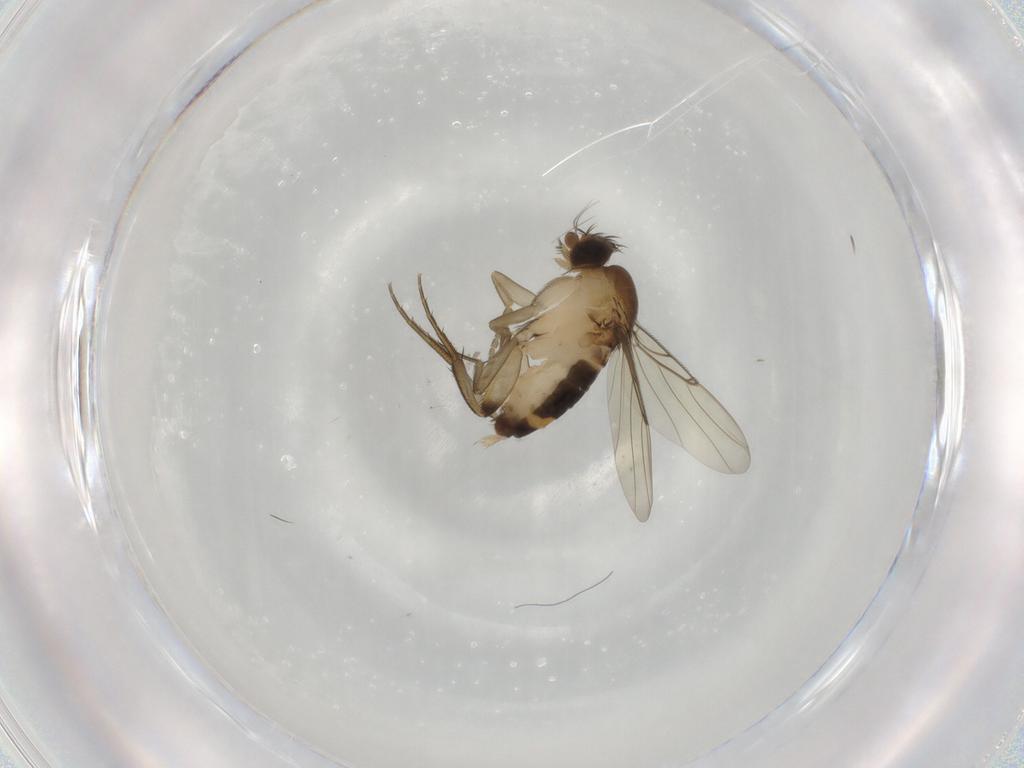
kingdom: Animalia
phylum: Arthropoda
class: Insecta
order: Diptera
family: Phoridae
